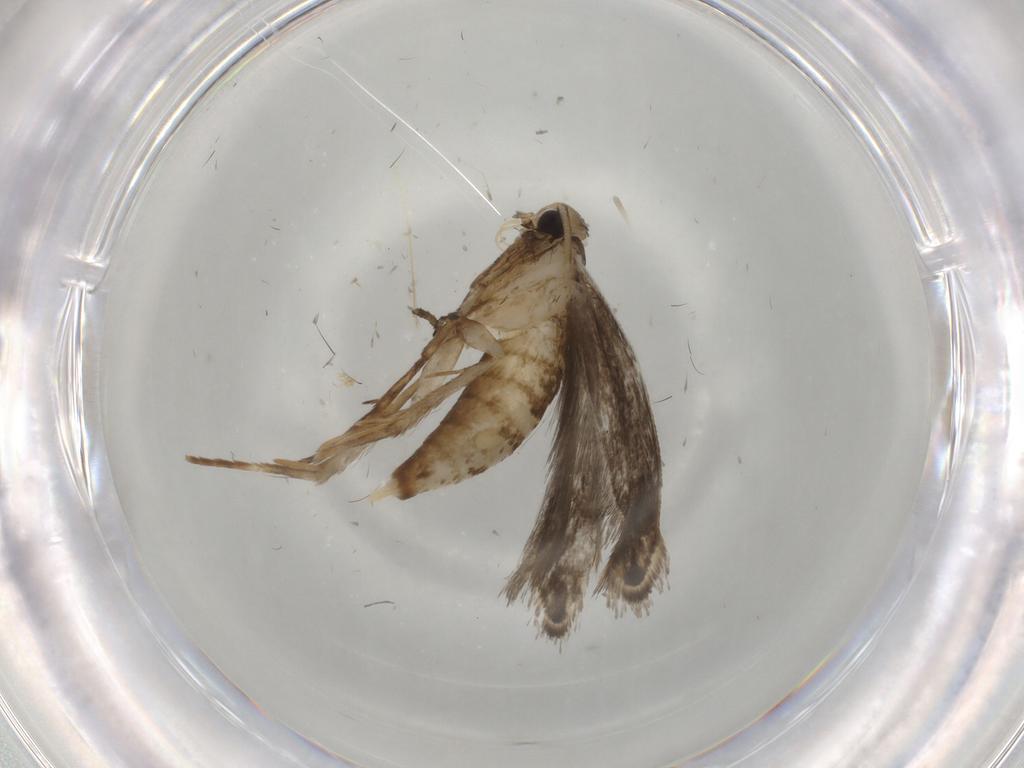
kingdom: Animalia
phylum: Arthropoda
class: Insecta
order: Lepidoptera
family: Tineidae
